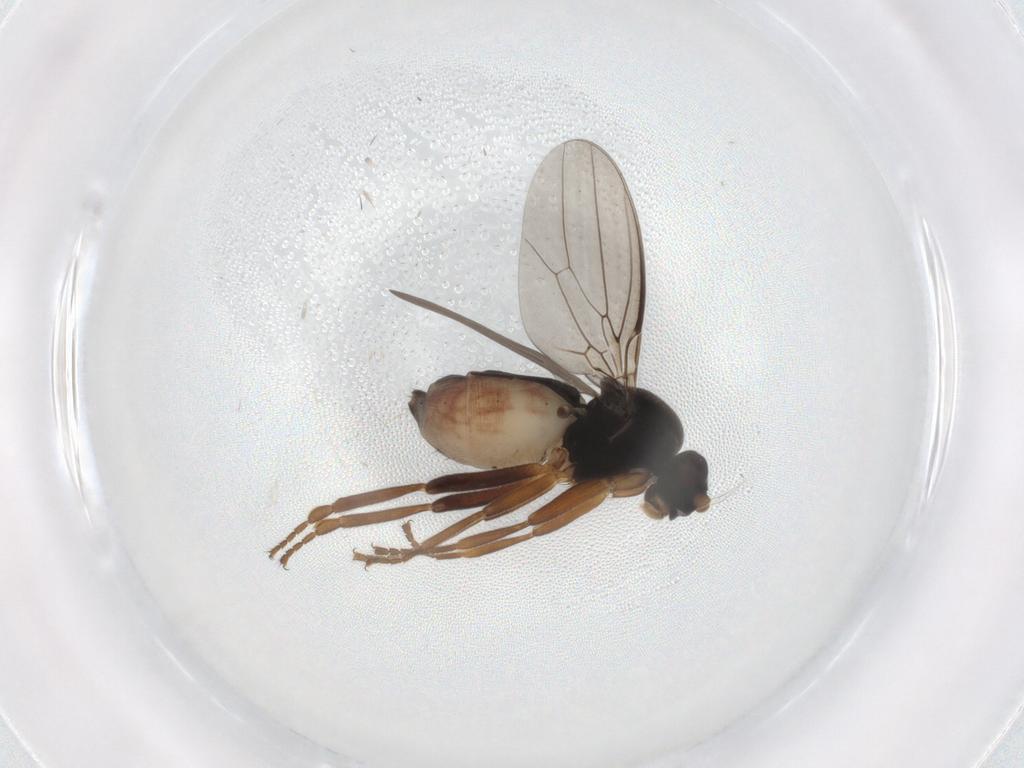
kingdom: Animalia
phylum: Arthropoda
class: Insecta
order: Diptera
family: Sphaeroceridae
